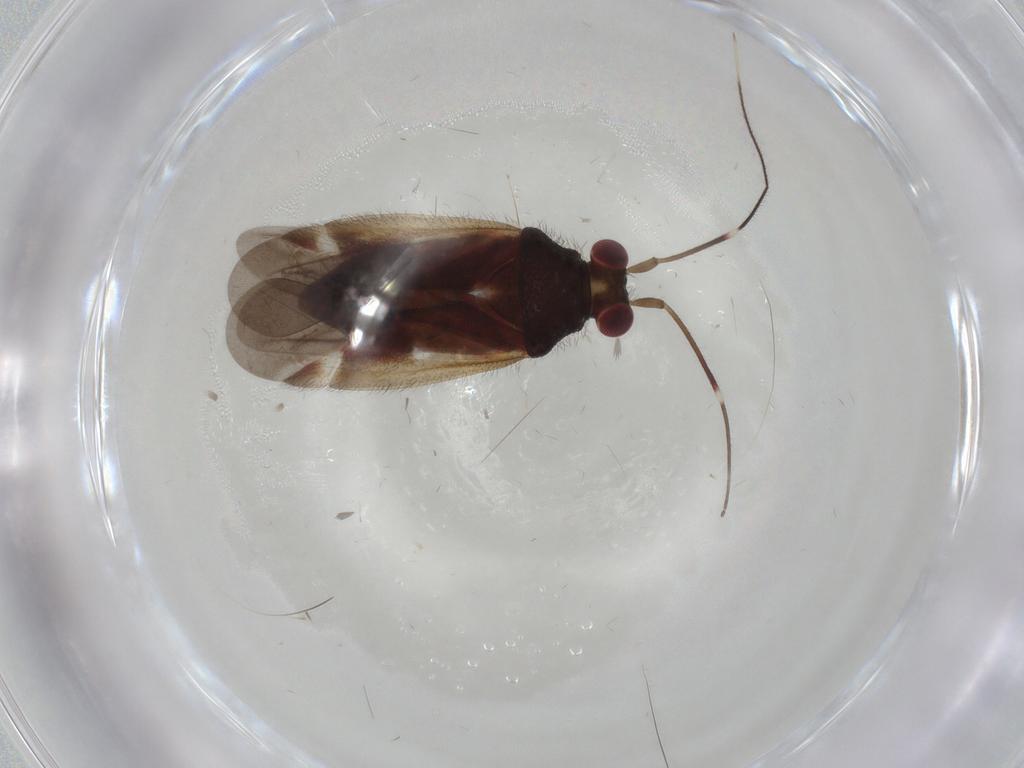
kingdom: Animalia
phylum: Arthropoda
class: Insecta
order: Hemiptera
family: Miridae
